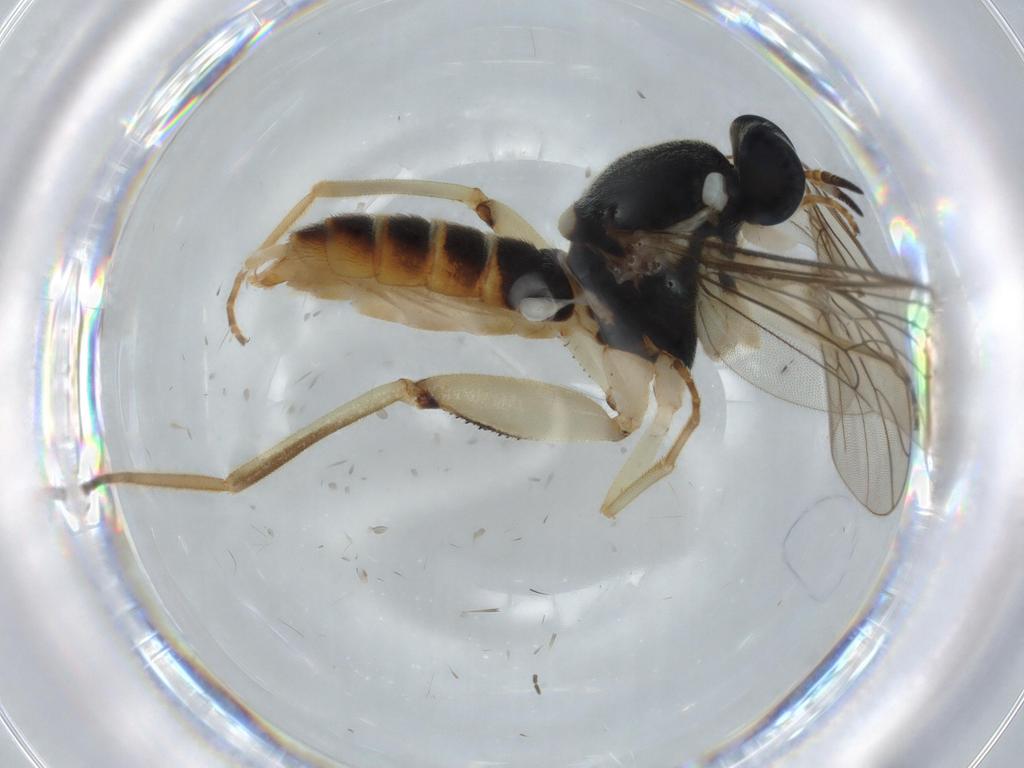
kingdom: Animalia
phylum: Arthropoda
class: Insecta
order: Diptera
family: Xylomyidae
